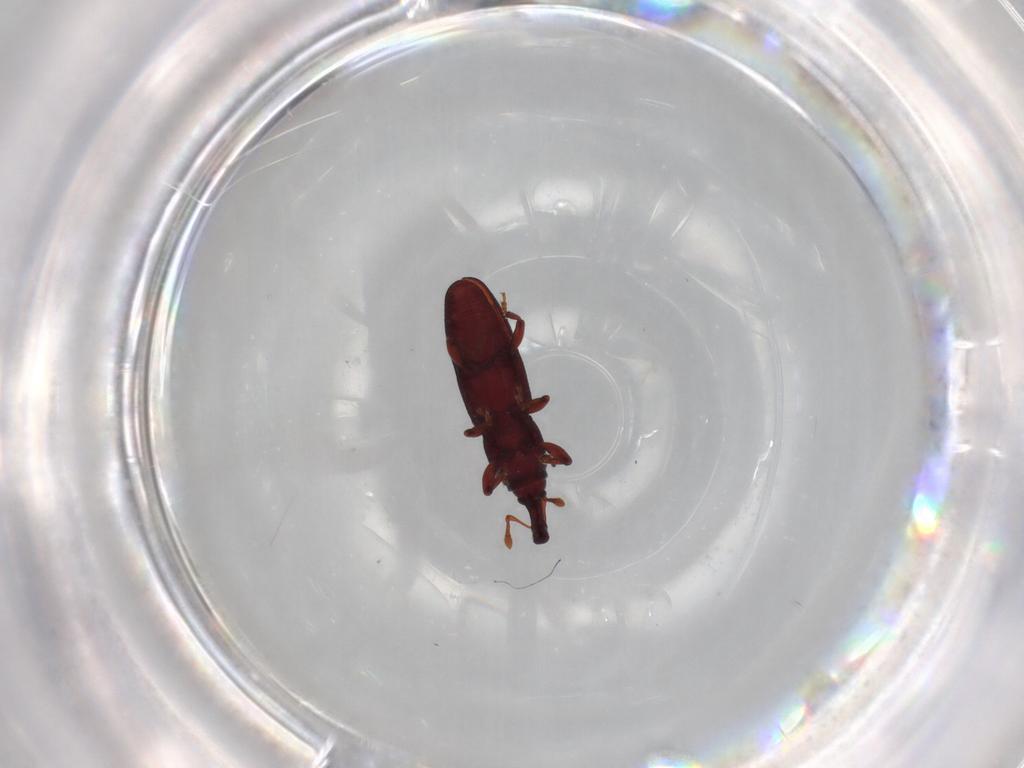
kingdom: Animalia
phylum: Arthropoda
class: Insecta
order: Coleoptera
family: Curculionidae
